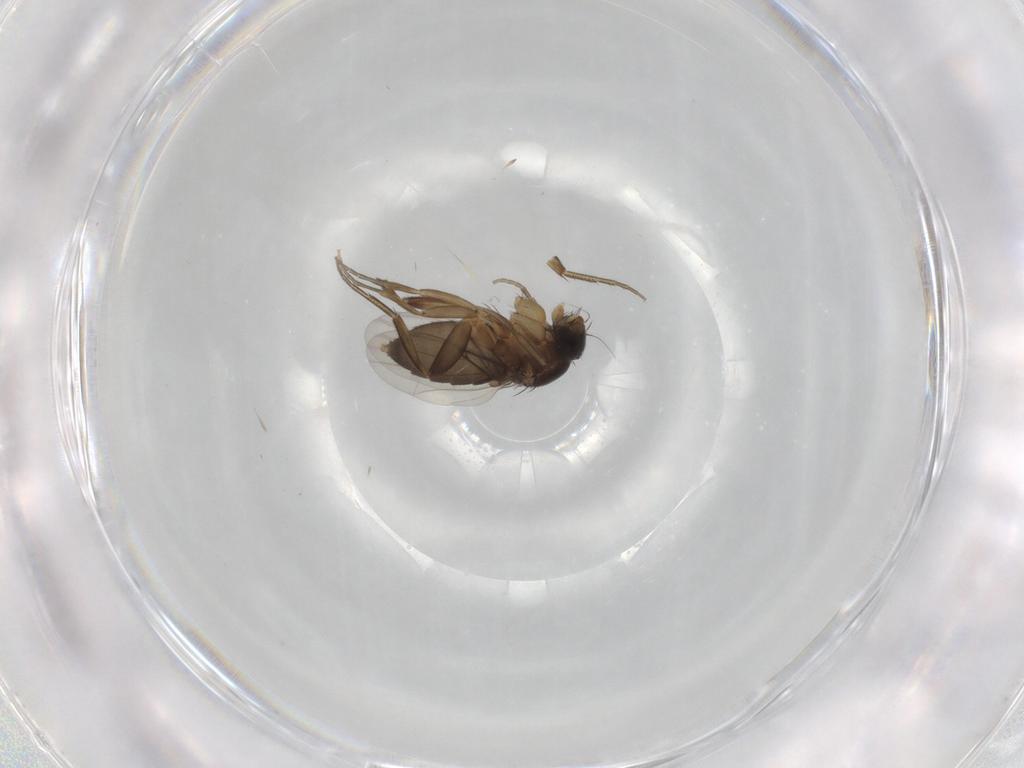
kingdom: Animalia
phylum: Arthropoda
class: Insecta
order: Diptera
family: Phoridae
